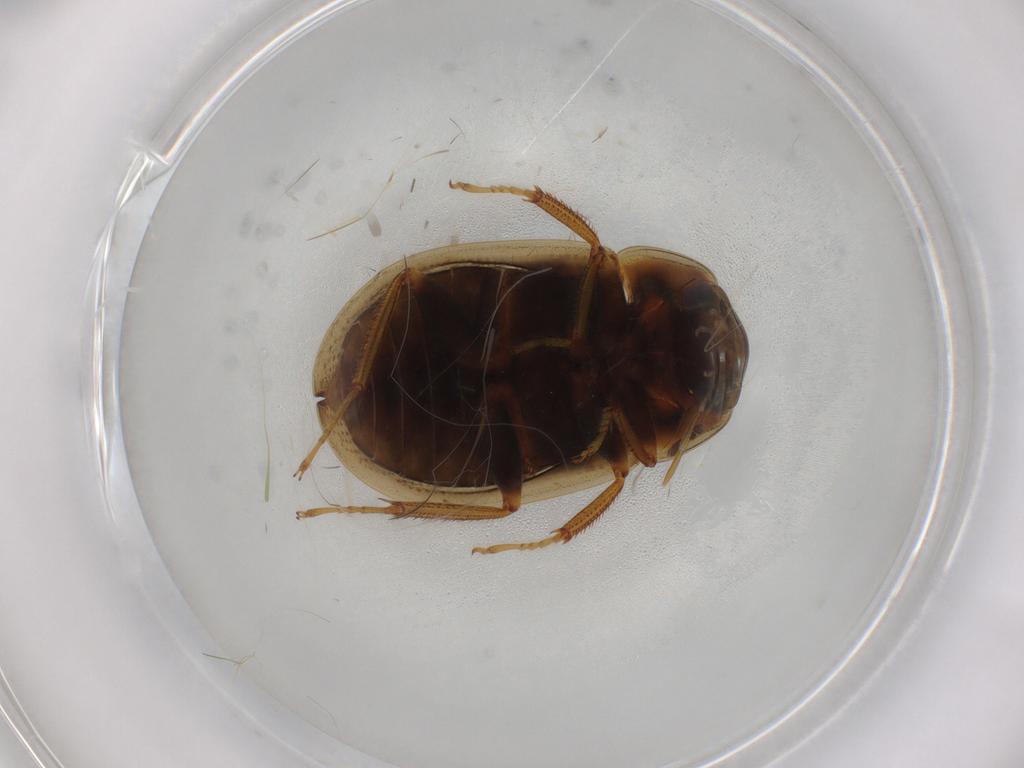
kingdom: Animalia
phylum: Arthropoda
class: Insecta
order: Coleoptera
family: Hydrophilidae
